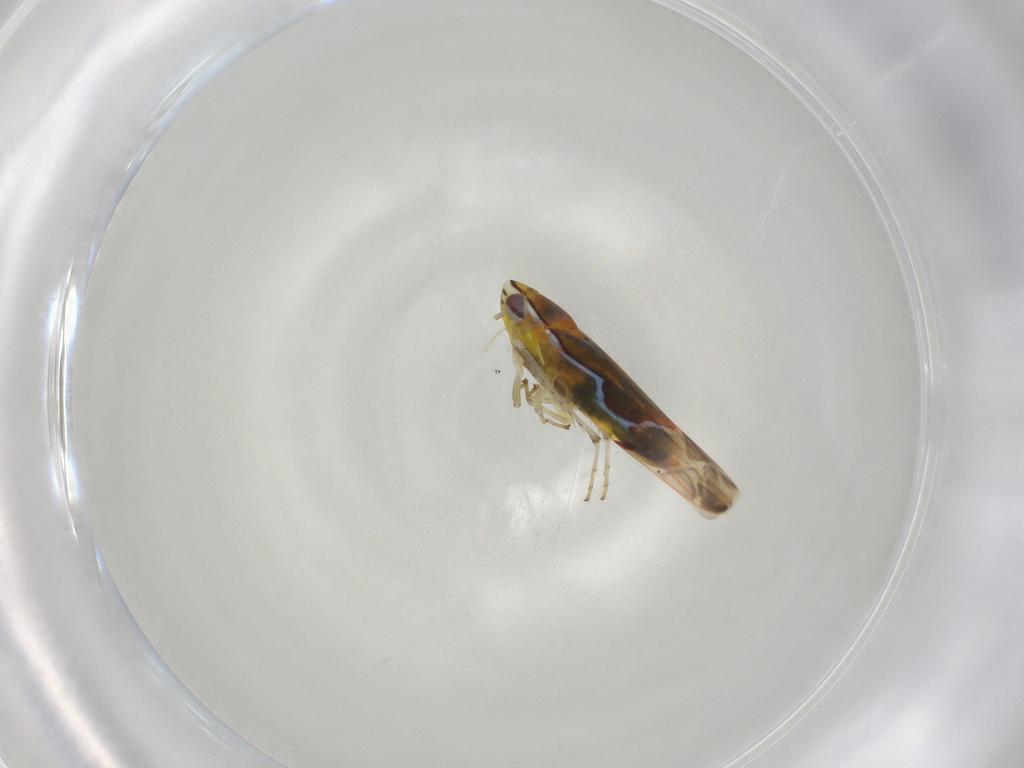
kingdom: Animalia
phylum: Arthropoda
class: Insecta
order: Hemiptera
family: Cicadellidae
